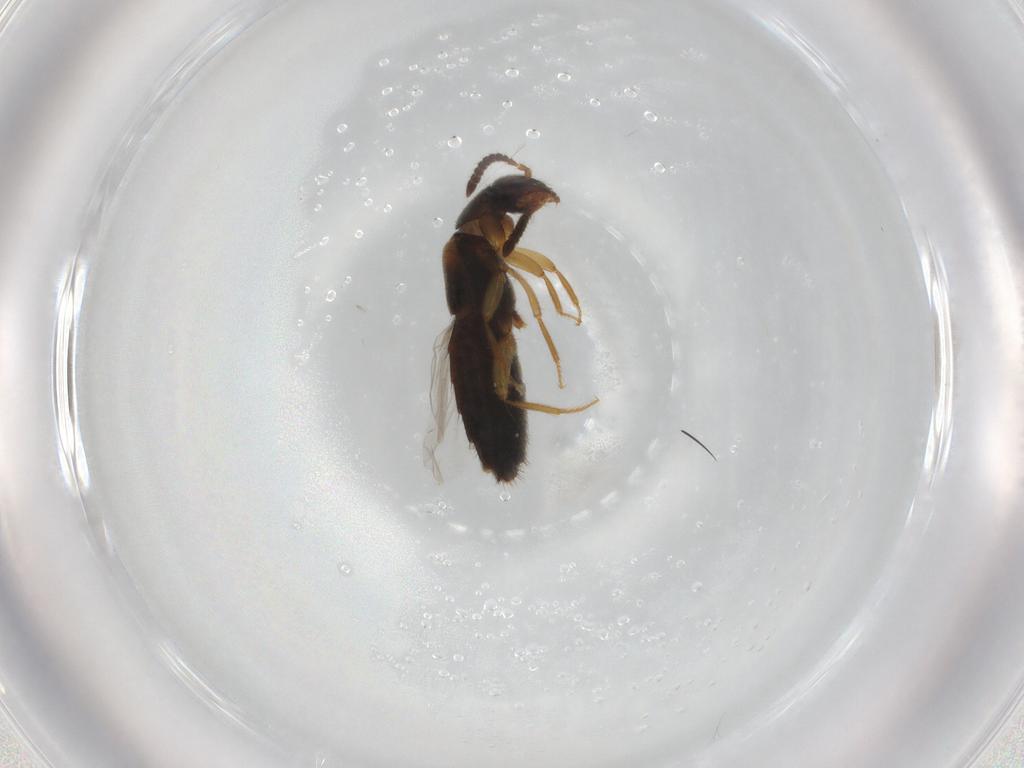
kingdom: Animalia
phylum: Arthropoda
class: Insecta
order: Coleoptera
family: Staphylinidae
